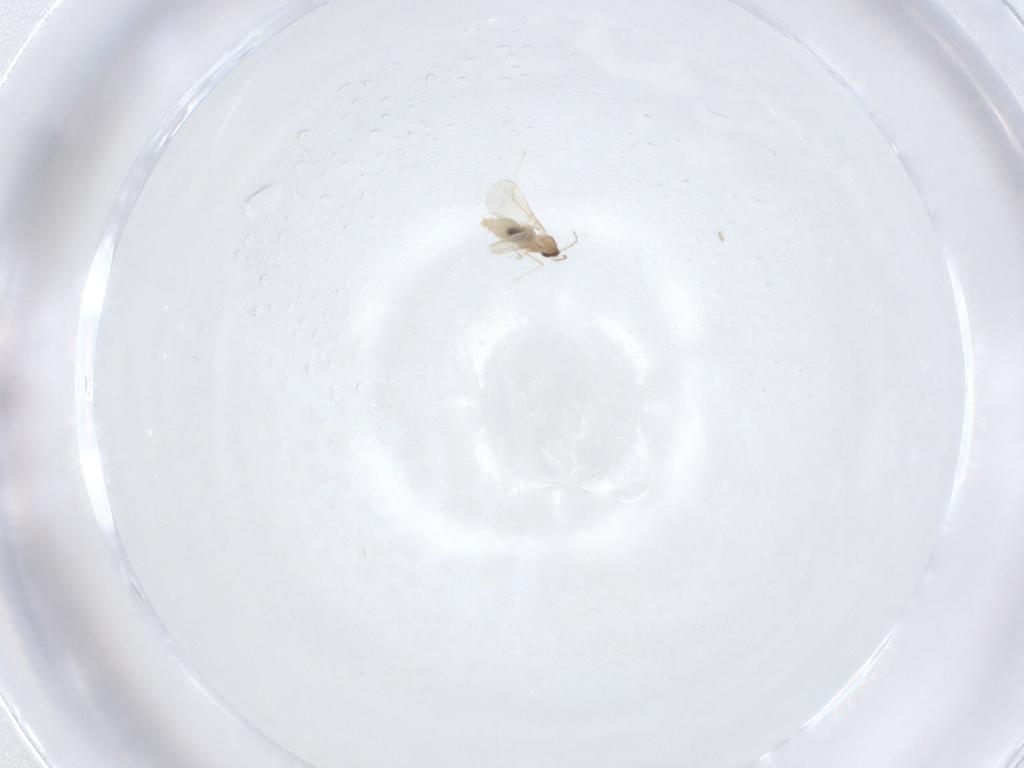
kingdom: Animalia
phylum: Arthropoda
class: Insecta
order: Diptera
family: Cecidomyiidae
